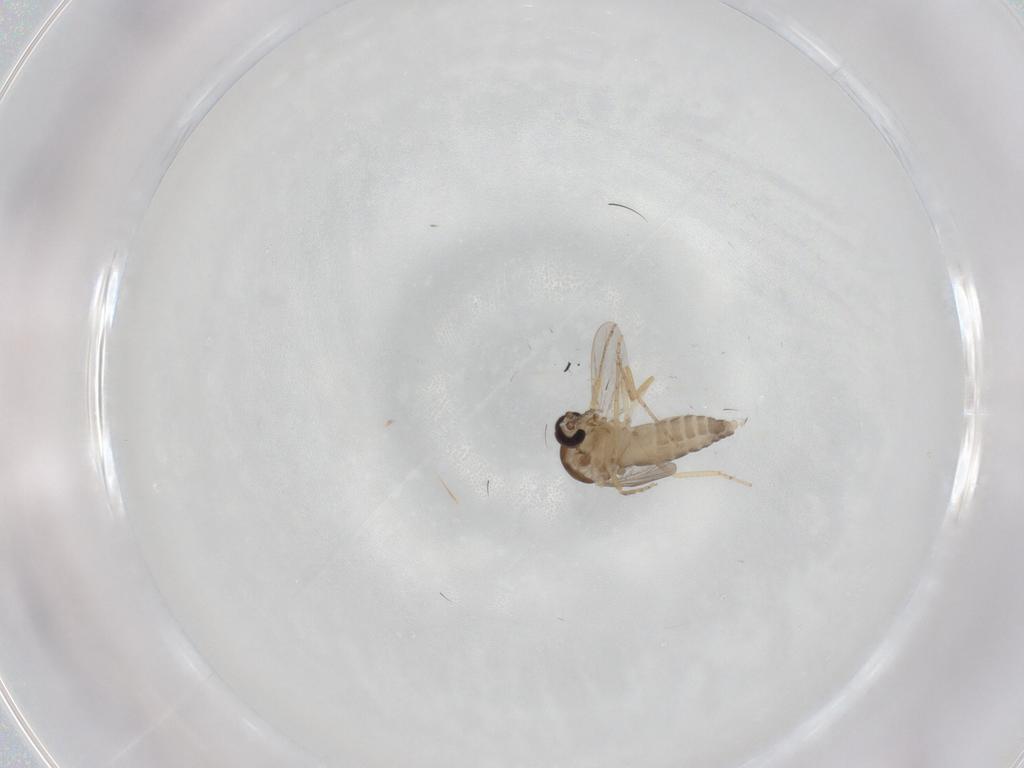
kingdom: Animalia
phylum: Arthropoda
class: Insecta
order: Diptera
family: Ceratopogonidae
